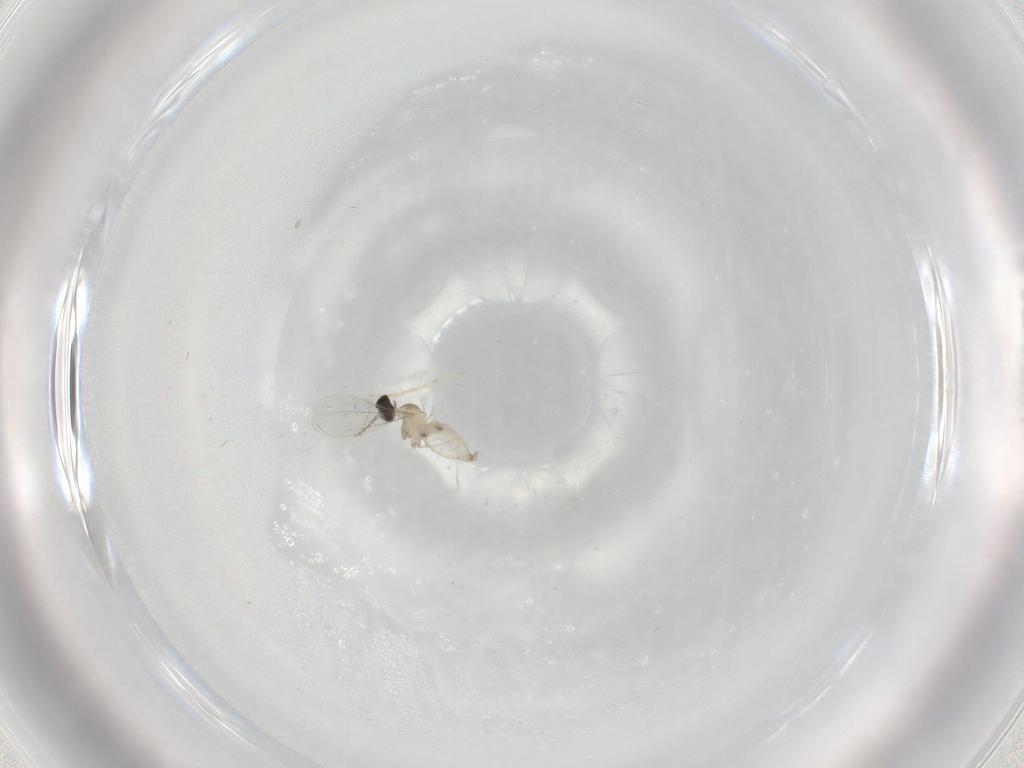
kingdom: Animalia
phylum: Arthropoda
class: Insecta
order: Diptera
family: Cecidomyiidae
